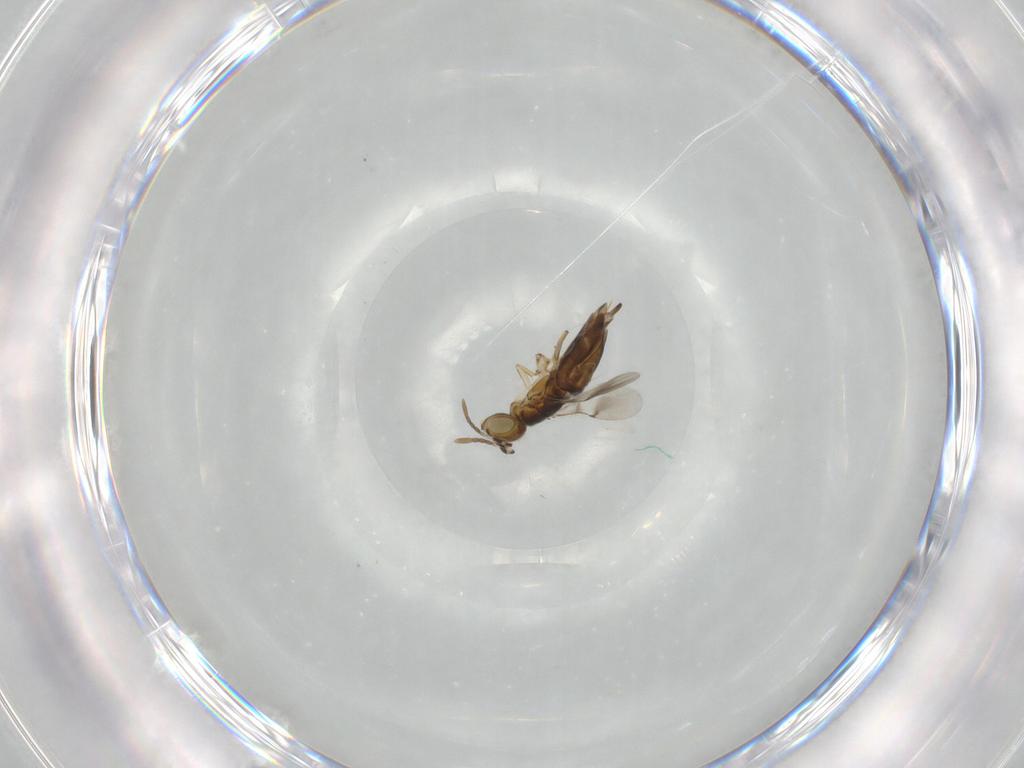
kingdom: Animalia
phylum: Arthropoda
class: Insecta
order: Hymenoptera
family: Encyrtidae
